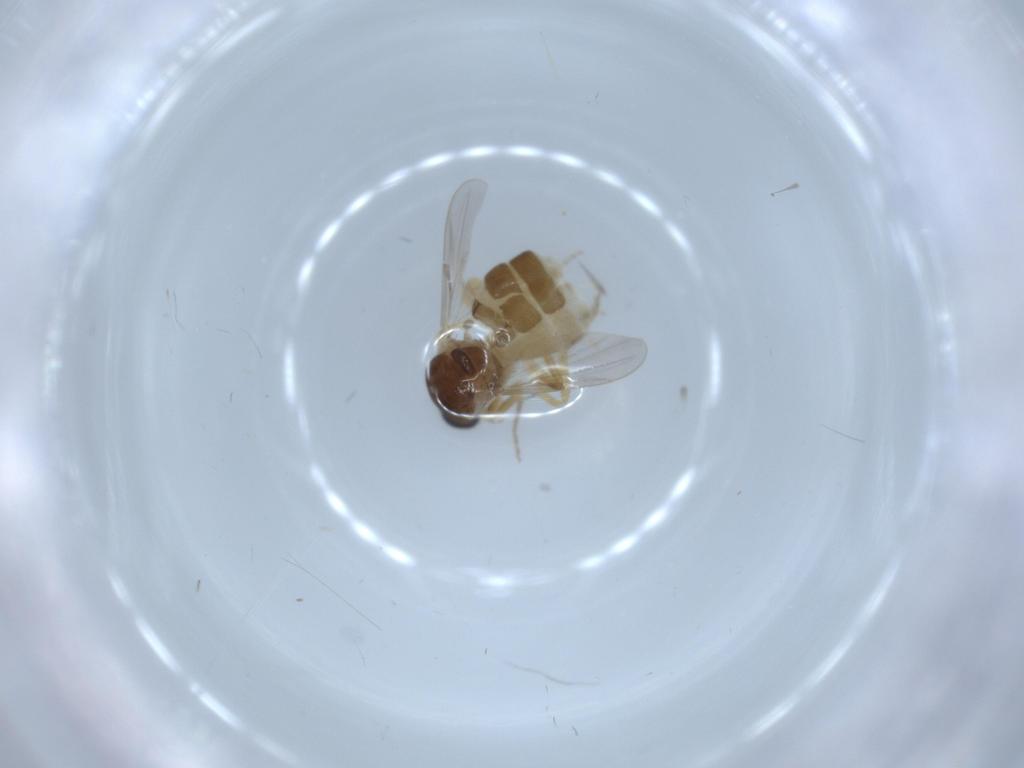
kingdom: Animalia
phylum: Arthropoda
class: Insecta
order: Diptera
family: Ceratopogonidae
